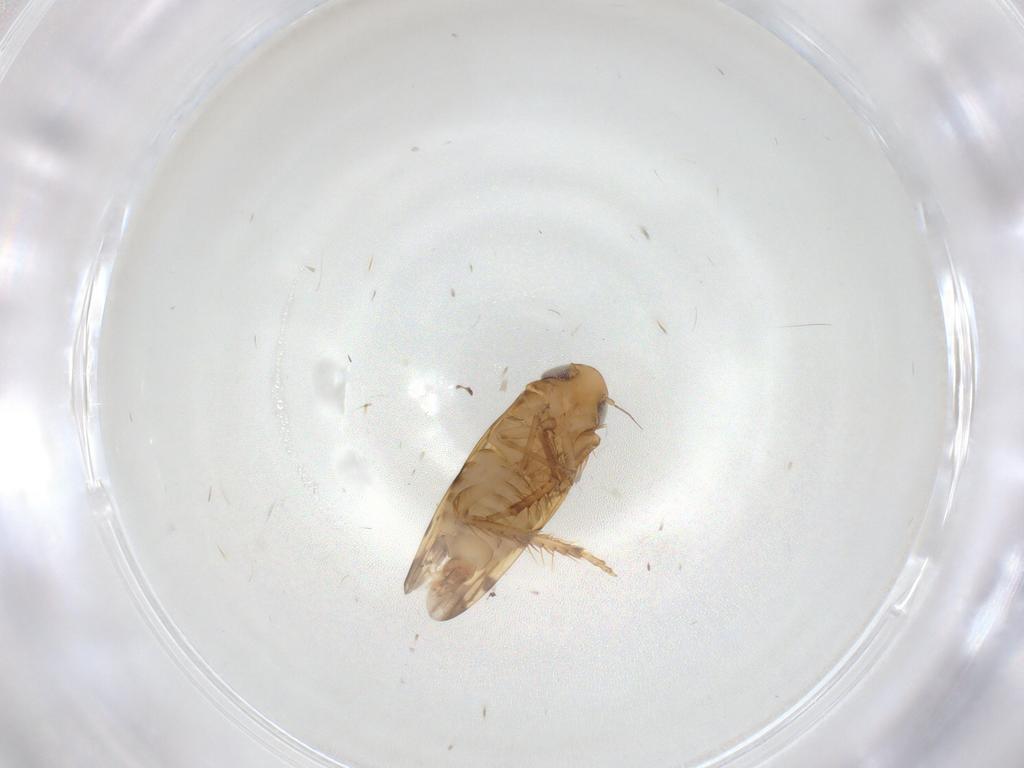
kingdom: Animalia
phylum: Arthropoda
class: Insecta
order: Hemiptera
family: Cicadellidae
